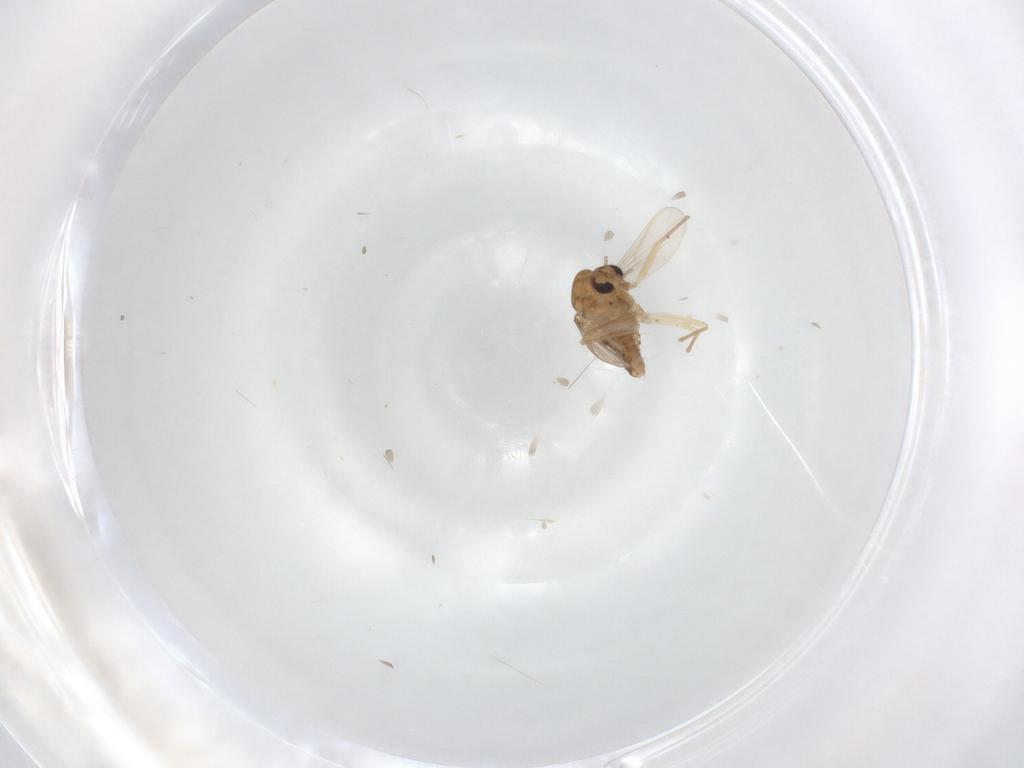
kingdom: Animalia
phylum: Arthropoda
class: Insecta
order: Diptera
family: Chironomidae
